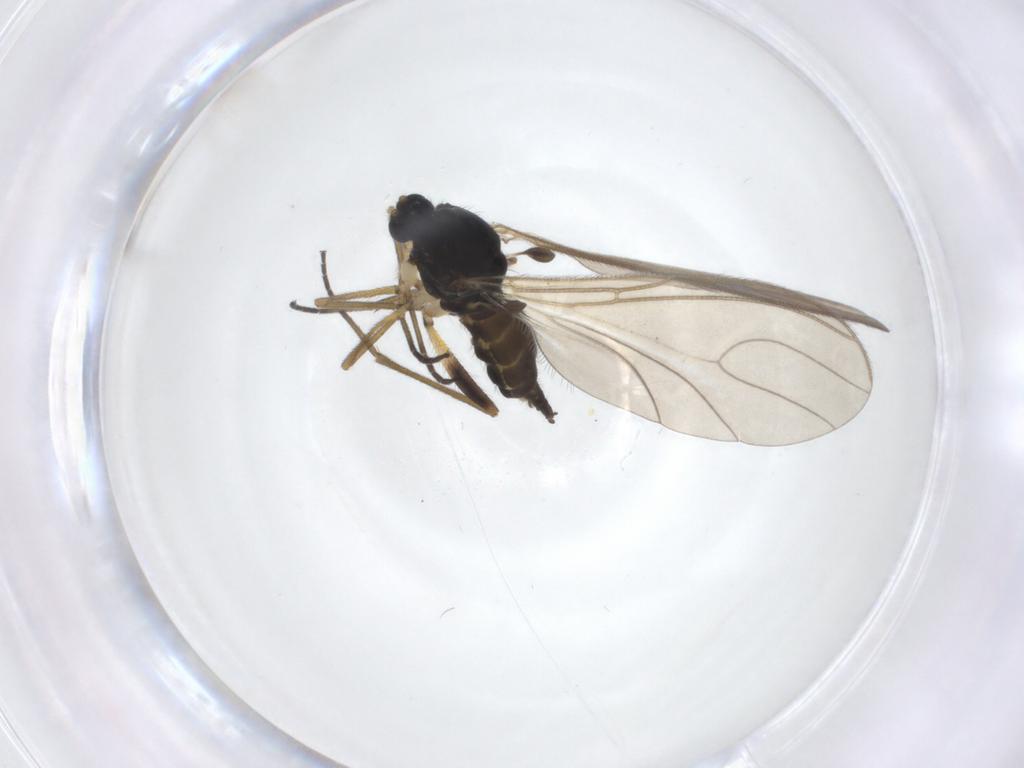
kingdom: Animalia
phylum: Arthropoda
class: Insecta
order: Diptera
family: Sciaridae
